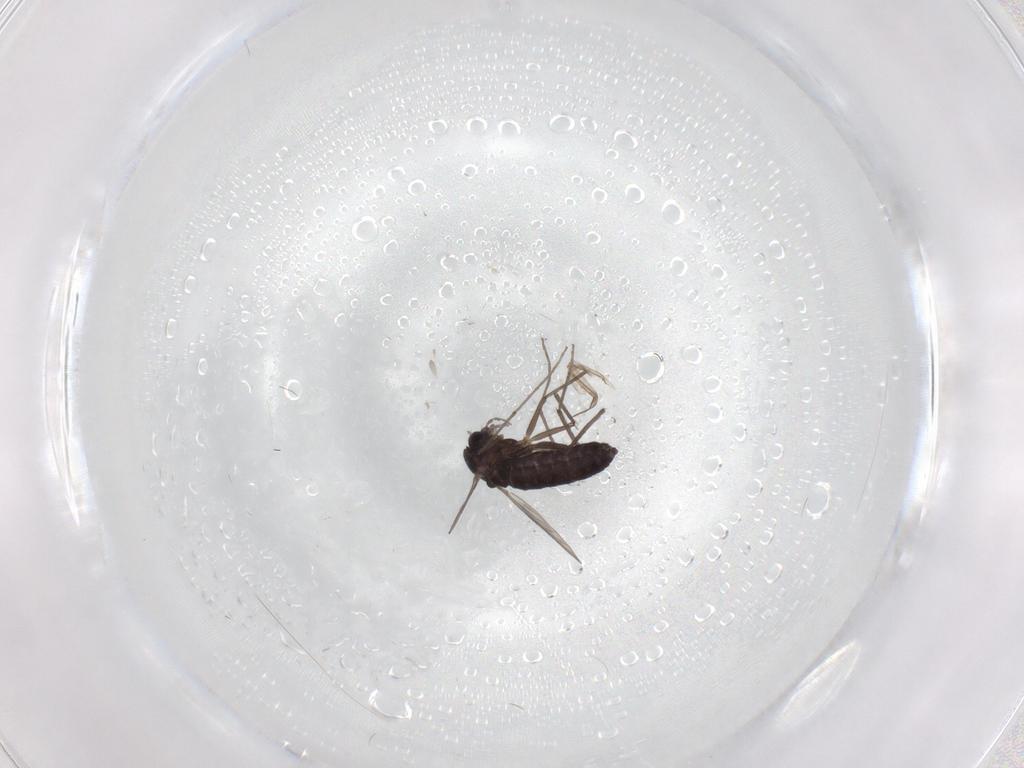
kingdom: Animalia
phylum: Arthropoda
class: Insecta
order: Diptera
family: Chironomidae
